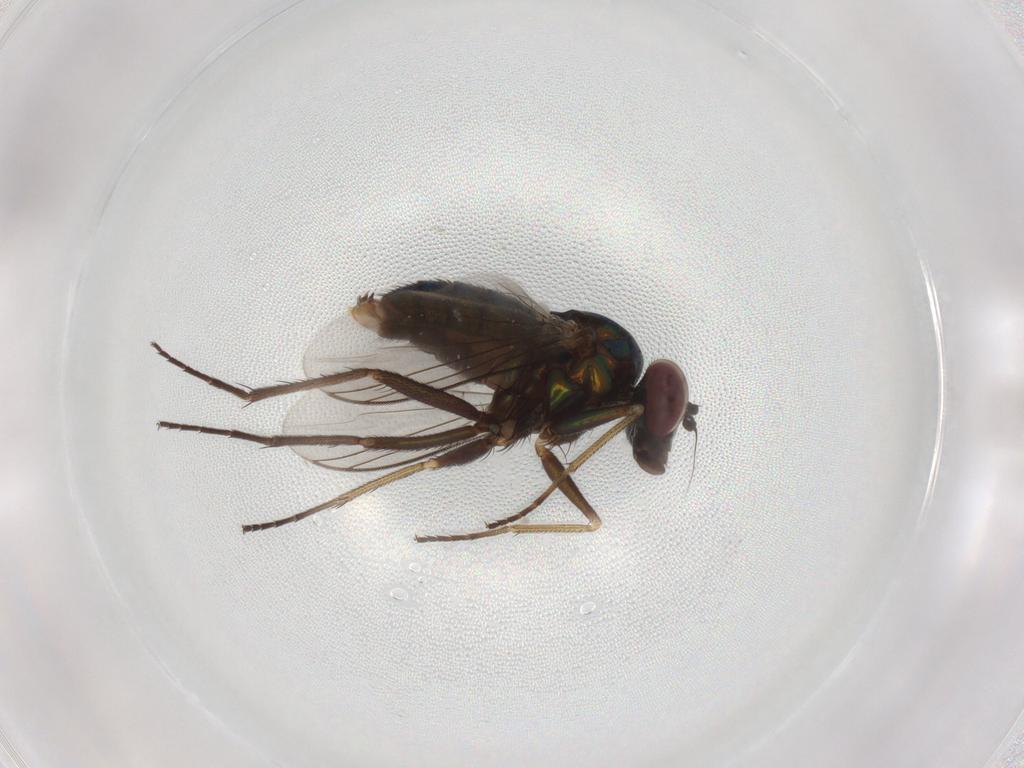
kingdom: Animalia
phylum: Arthropoda
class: Insecta
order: Diptera
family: Dolichopodidae
